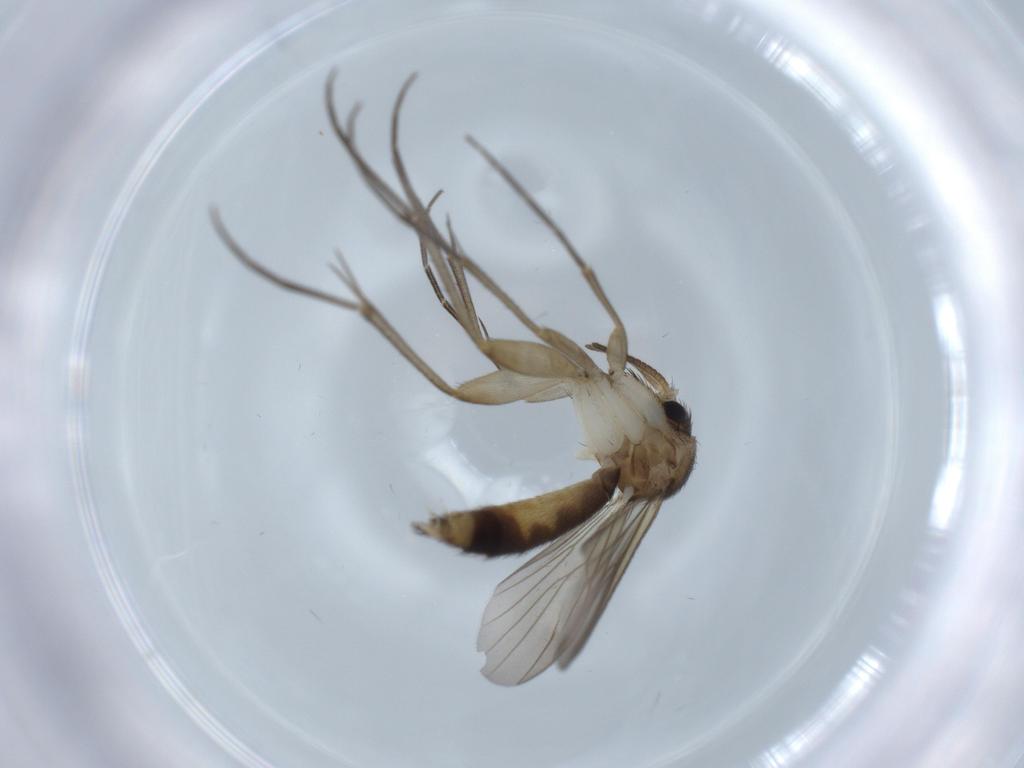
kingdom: Animalia
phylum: Arthropoda
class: Insecta
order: Diptera
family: Mycetophilidae
